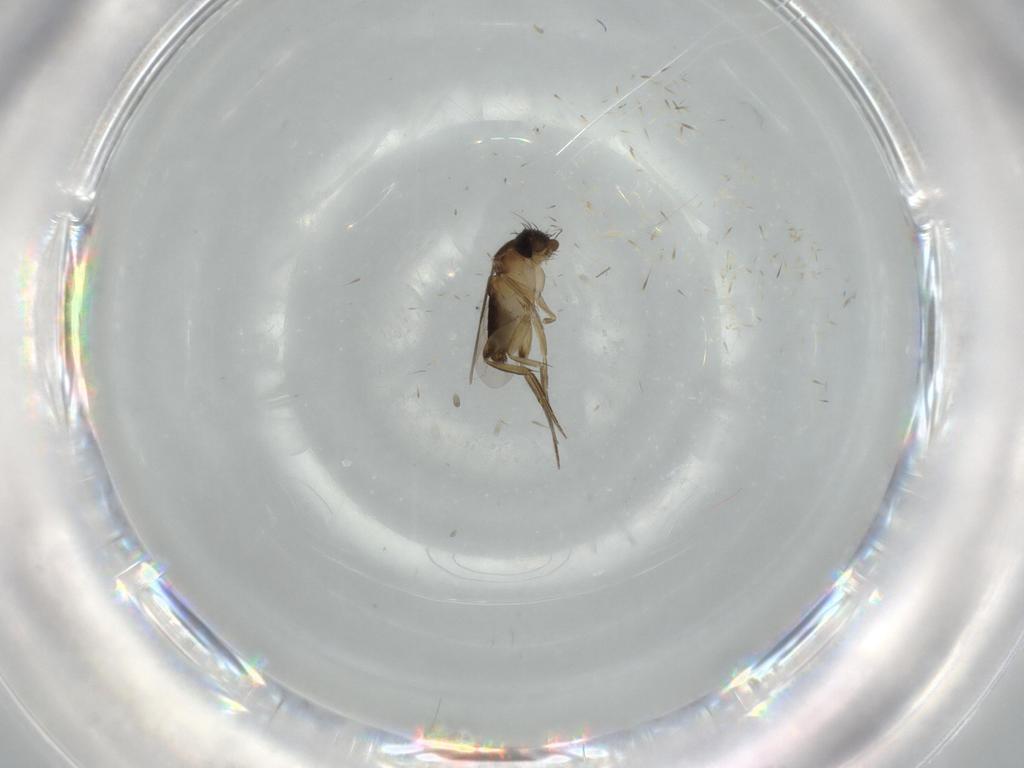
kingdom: Animalia
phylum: Arthropoda
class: Insecta
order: Diptera
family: Phoridae
